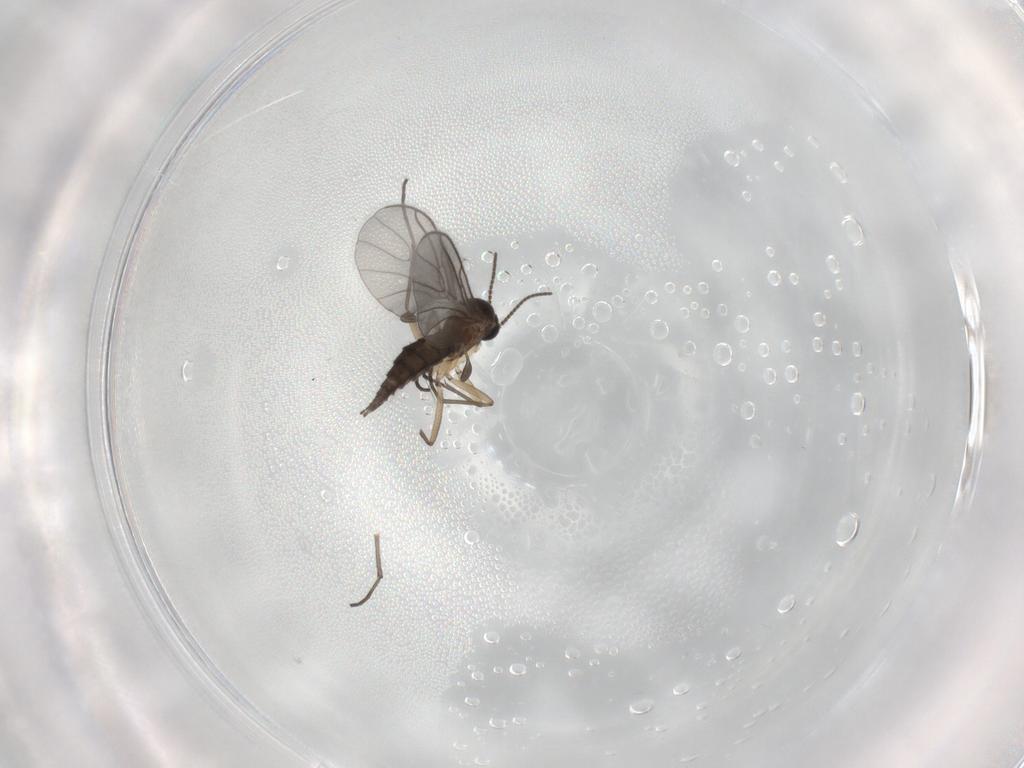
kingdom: Animalia
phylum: Arthropoda
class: Insecta
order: Diptera
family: Sciaridae
